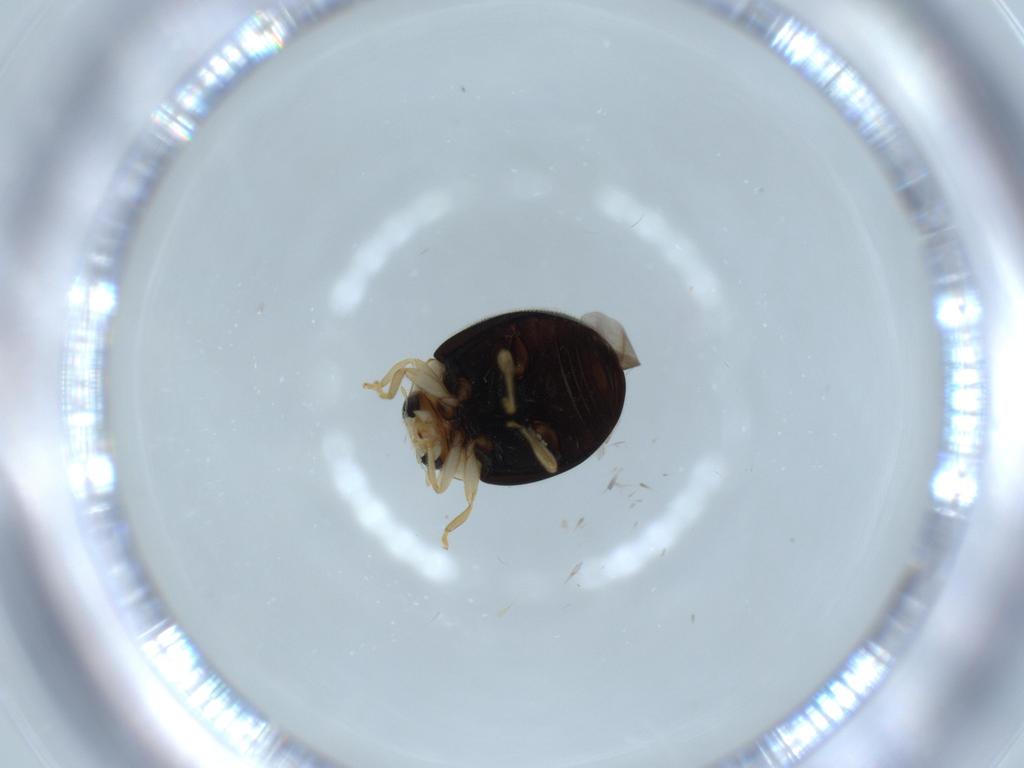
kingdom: Animalia
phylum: Arthropoda
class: Insecta
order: Coleoptera
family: Coccinellidae
